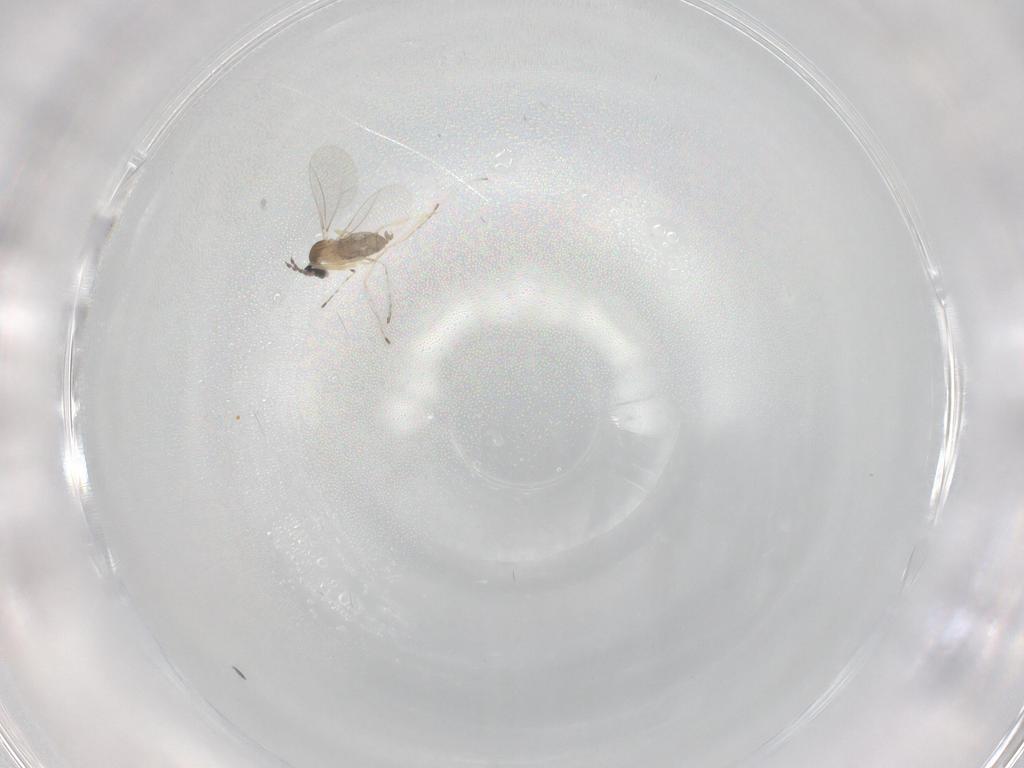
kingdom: Animalia
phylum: Arthropoda
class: Insecta
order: Diptera
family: Cecidomyiidae
